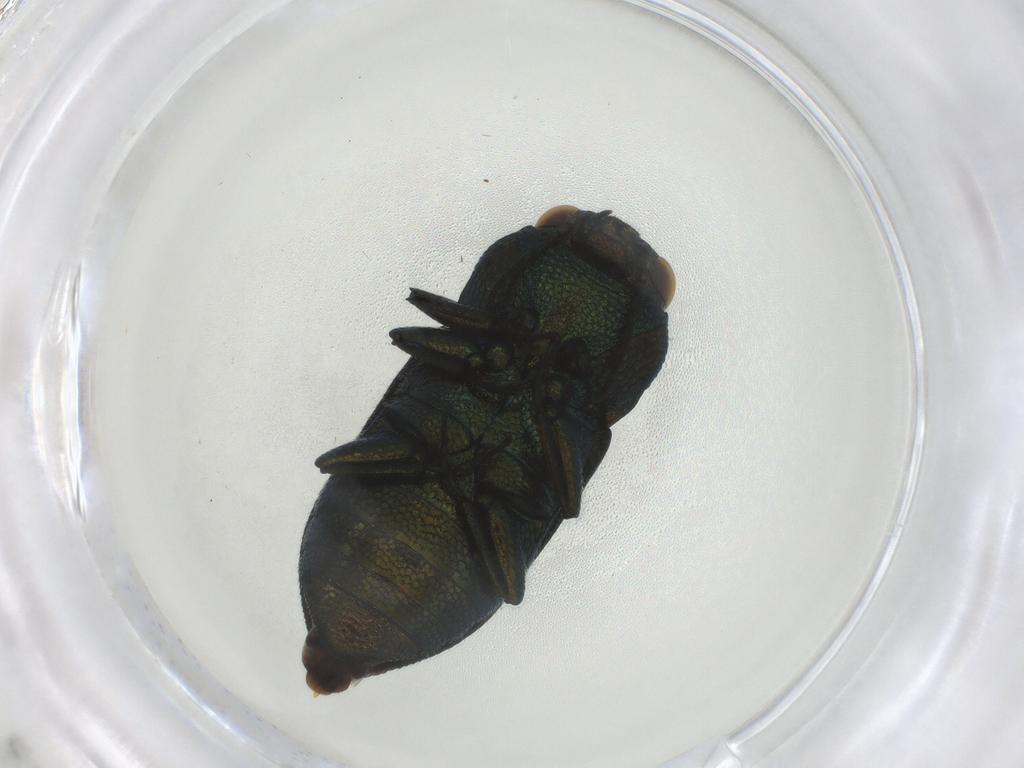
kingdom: Animalia
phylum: Arthropoda
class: Insecta
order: Coleoptera
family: Buprestidae
